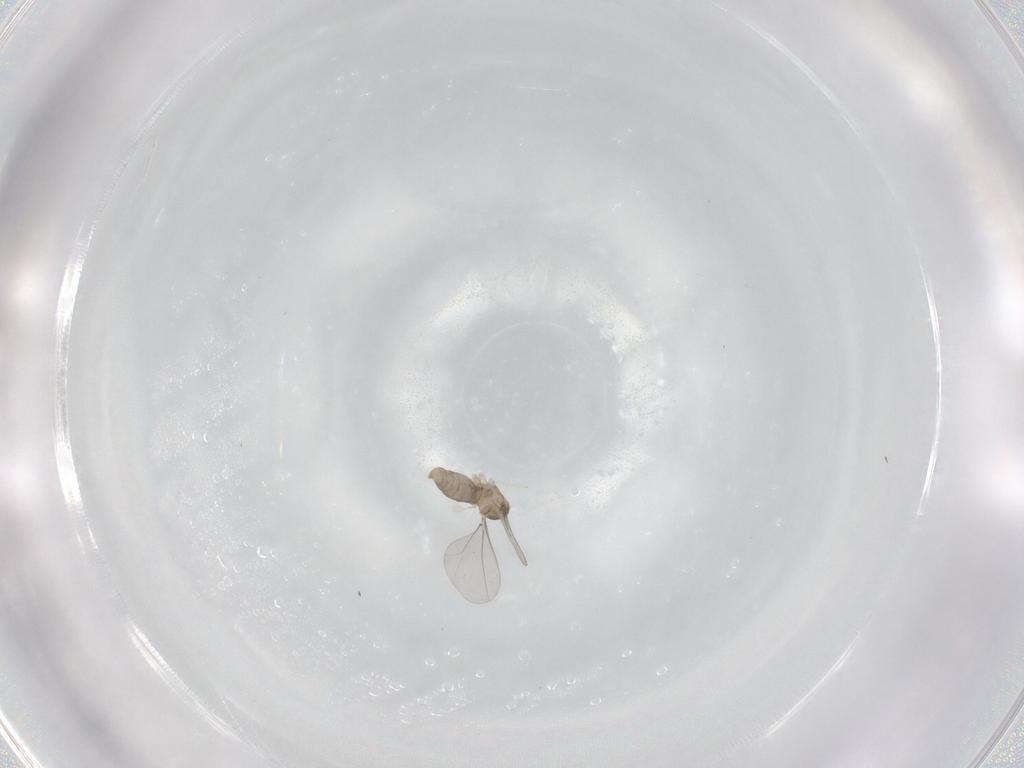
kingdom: Animalia
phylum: Arthropoda
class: Insecta
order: Diptera
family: Cecidomyiidae
